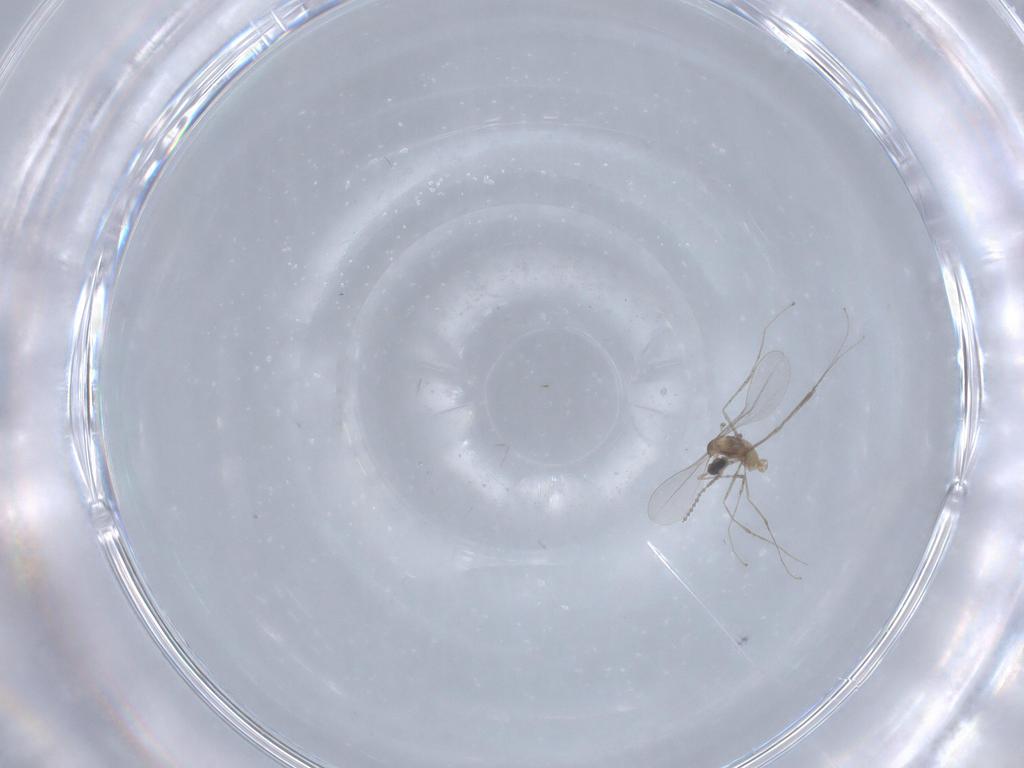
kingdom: Animalia
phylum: Arthropoda
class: Insecta
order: Diptera
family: Cecidomyiidae
